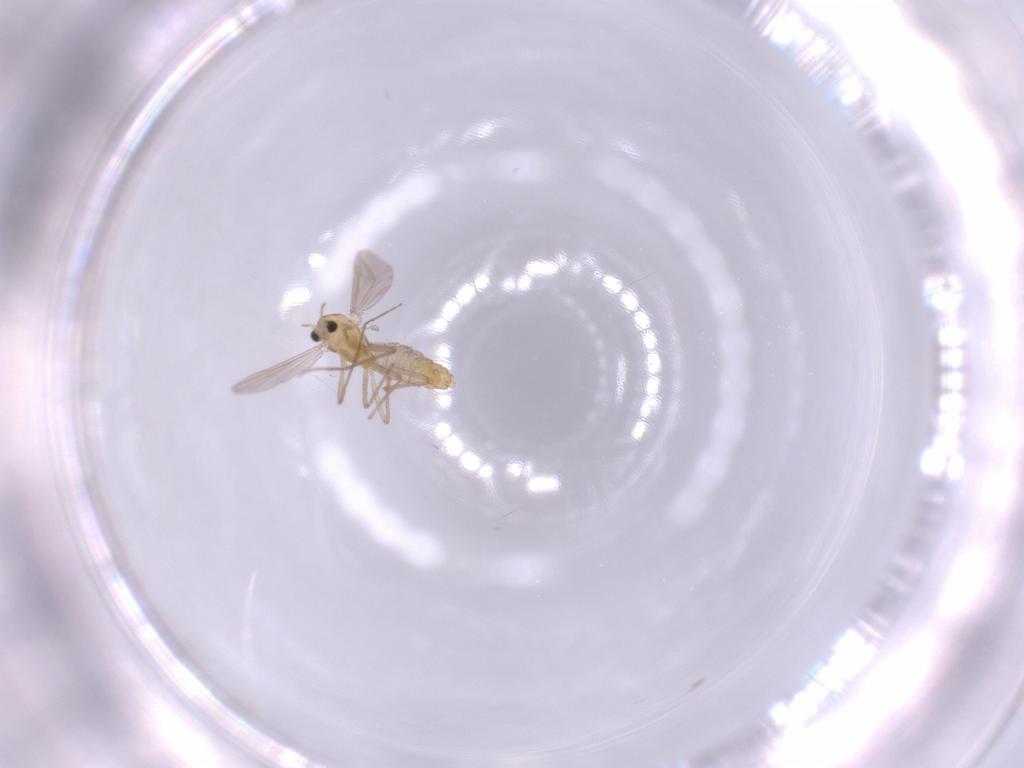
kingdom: Animalia
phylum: Arthropoda
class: Insecta
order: Diptera
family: Chironomidae
